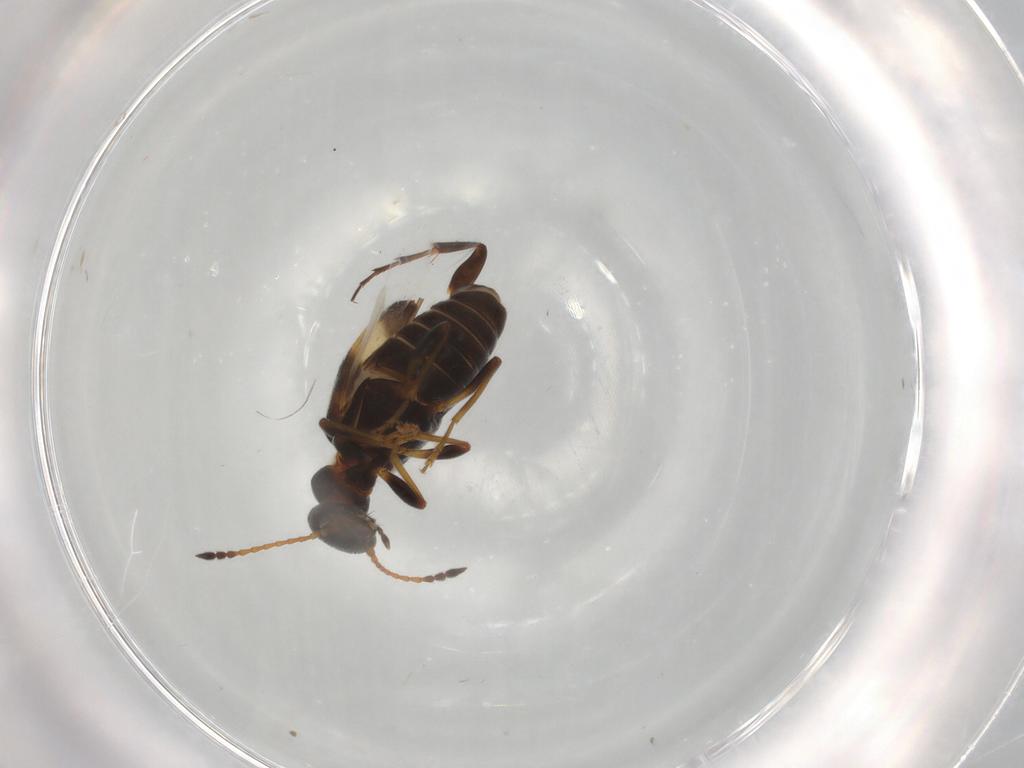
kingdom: Animalia
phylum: Arthropoda
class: Insecta
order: Coleoptera
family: Anthicidae
